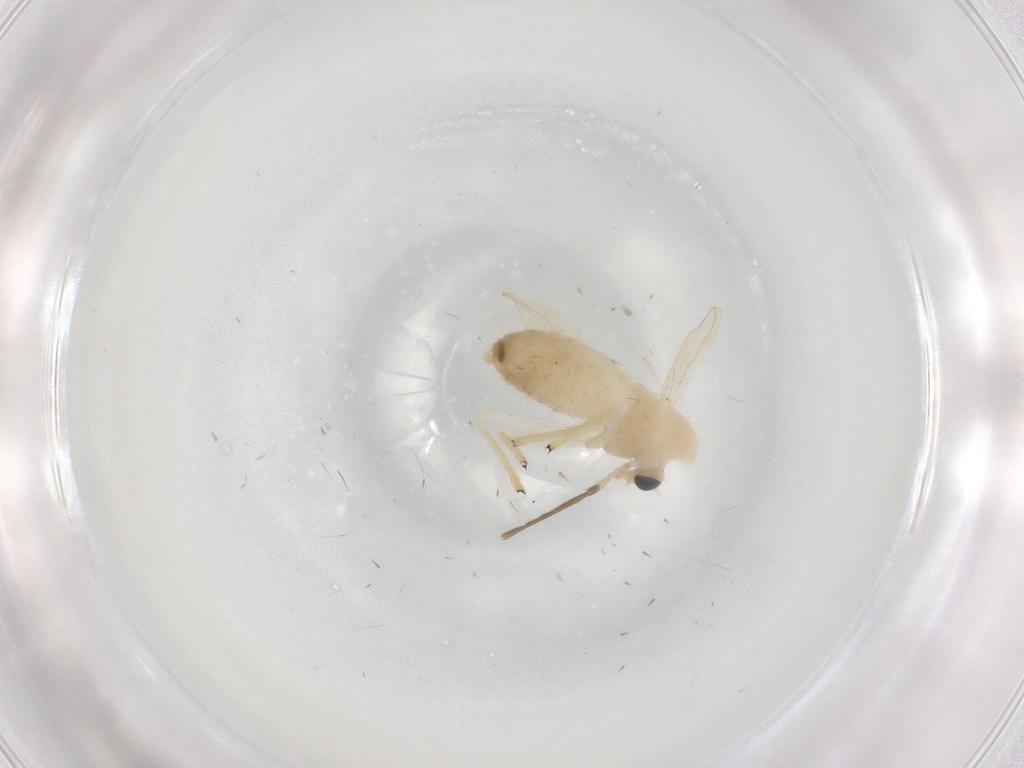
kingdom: Animalia
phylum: Arthropoda
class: Insecta
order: Diptera
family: Chironomidae
